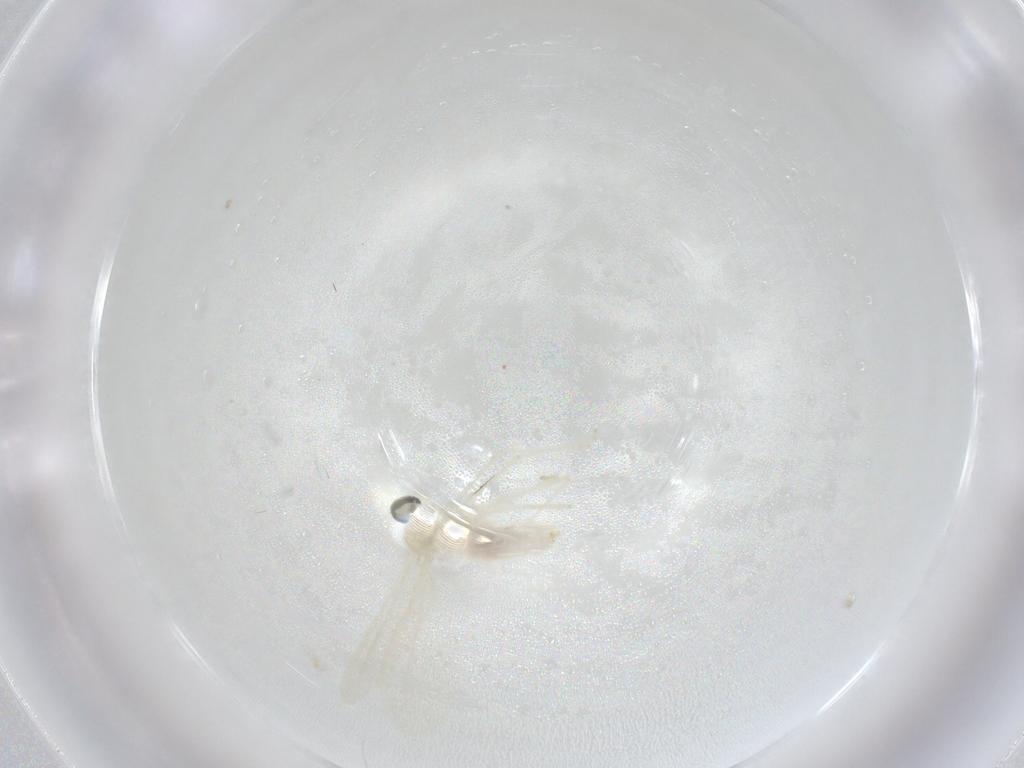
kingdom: Animalia
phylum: Arthropoda
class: Insecta
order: Diptera
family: Cecidomyiidae
